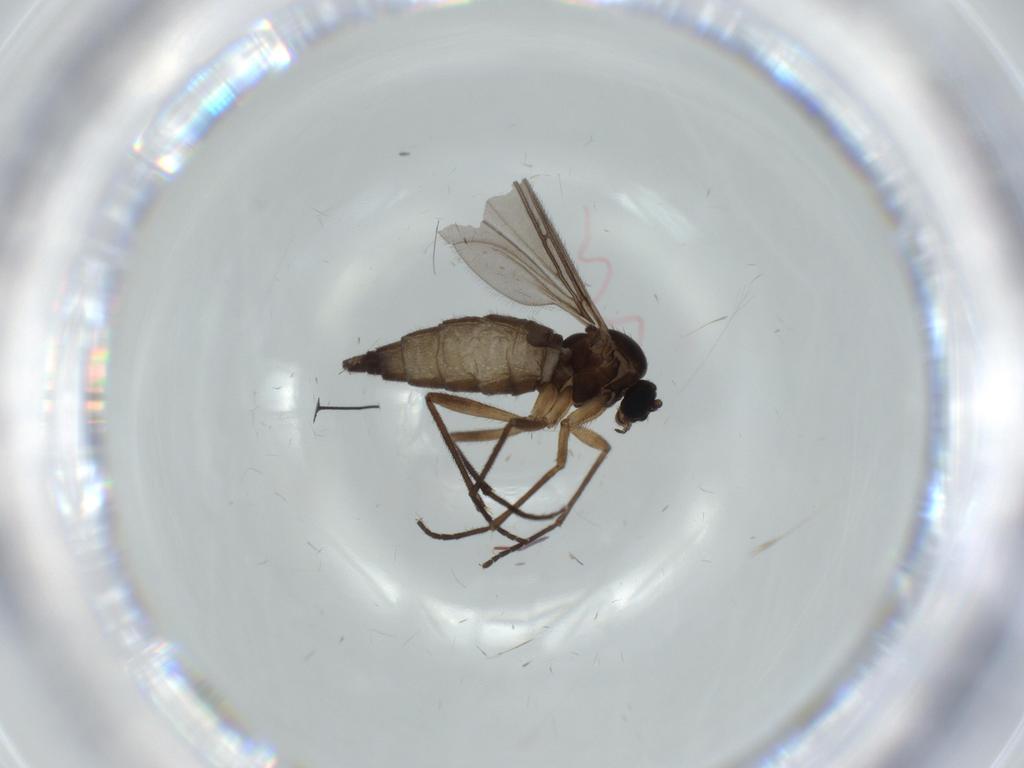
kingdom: Animalia
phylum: Arthropoda
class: Insecta
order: Diptera
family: Sciaridae
